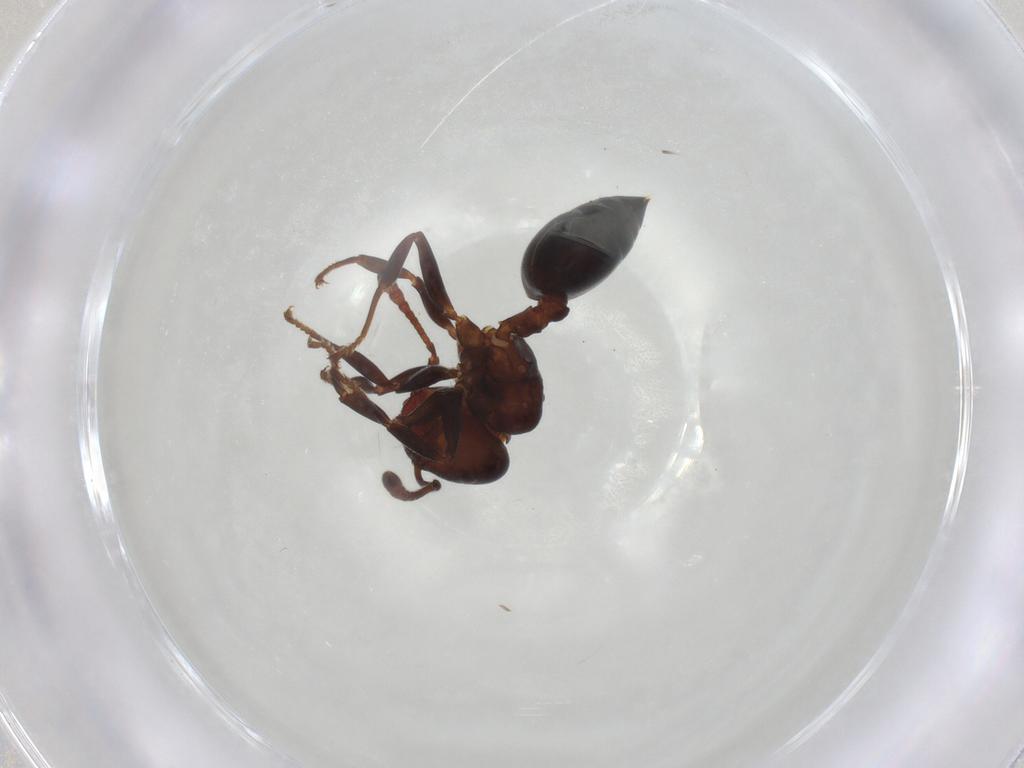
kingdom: Animalia
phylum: Arthropoda
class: Insecta
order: Hymenoptera
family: Formicidae
